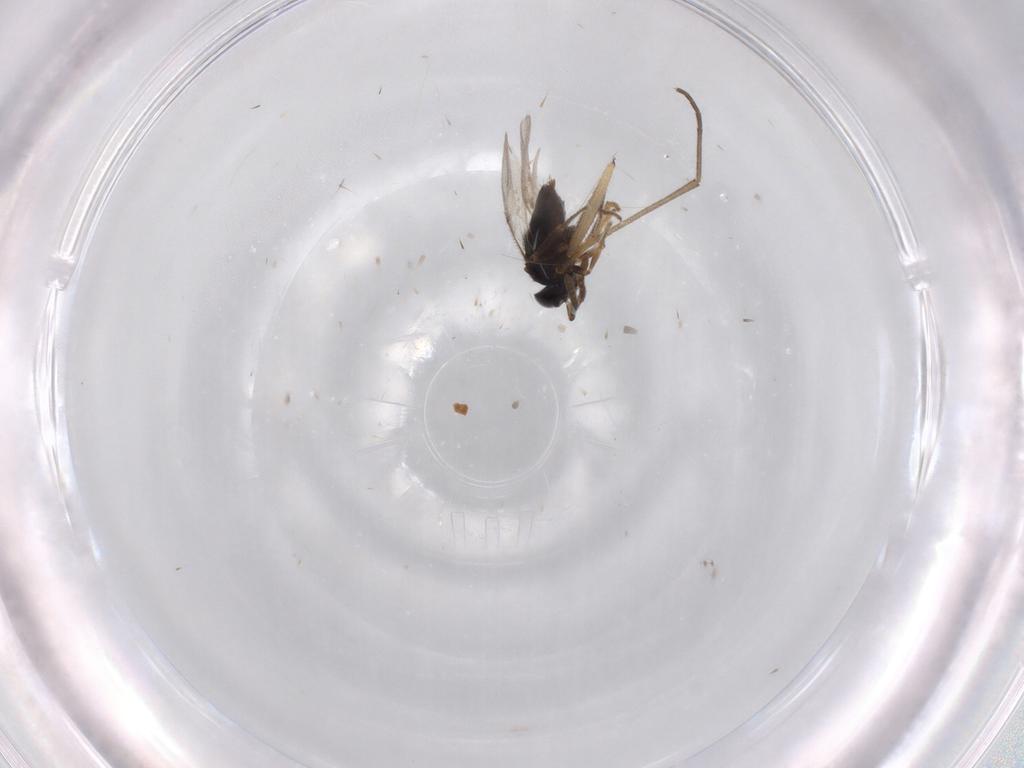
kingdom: Animalia
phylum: Arthropoda
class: Insecta
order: Diptera
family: Sciaridae
